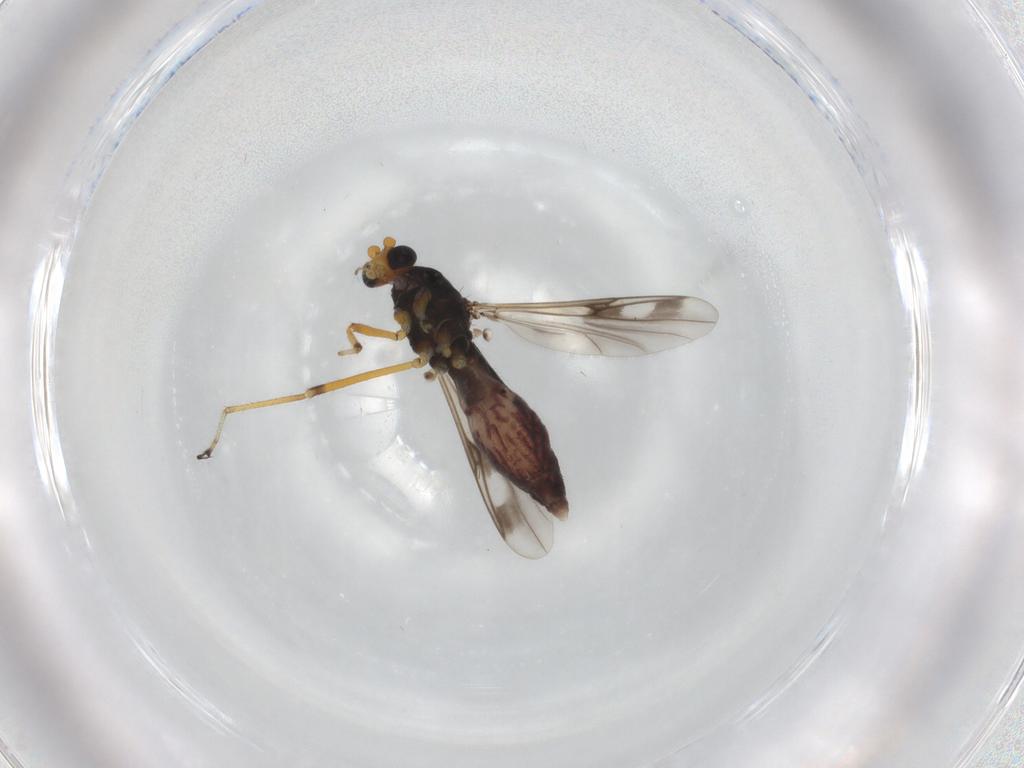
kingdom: Animalia
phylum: Arthropoda
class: Insecta
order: Diptera
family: Ceratopogonidae
